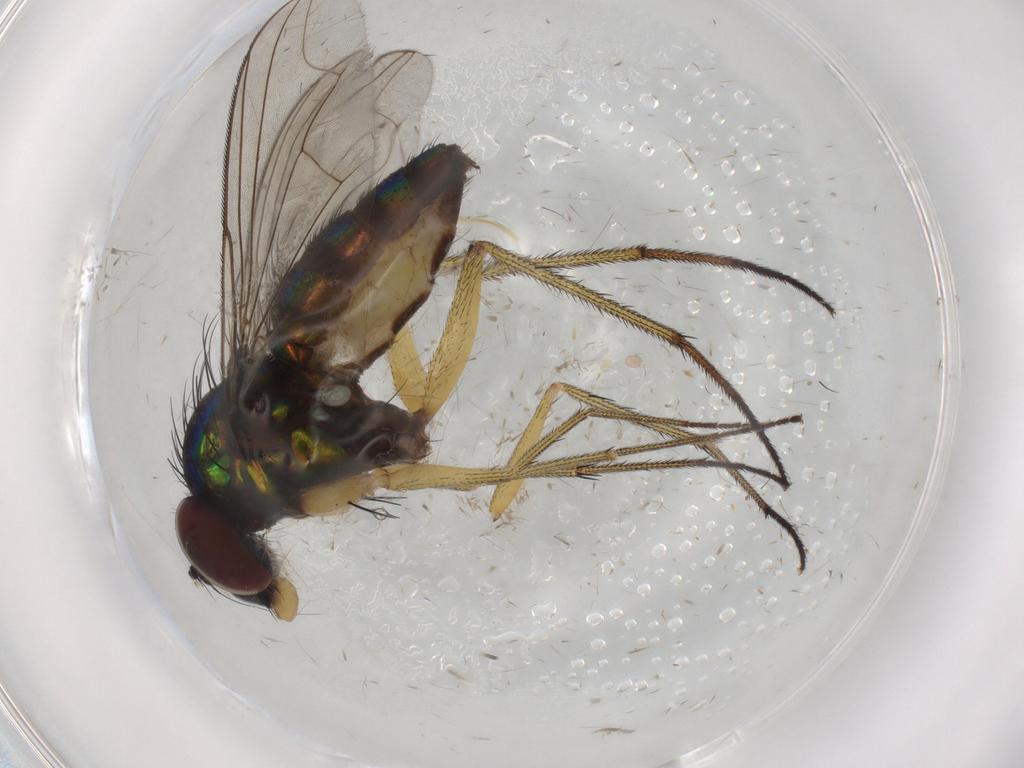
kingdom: Animalia
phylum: Arthropoda
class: Insecta
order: Diptera
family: Dolichopodidae
